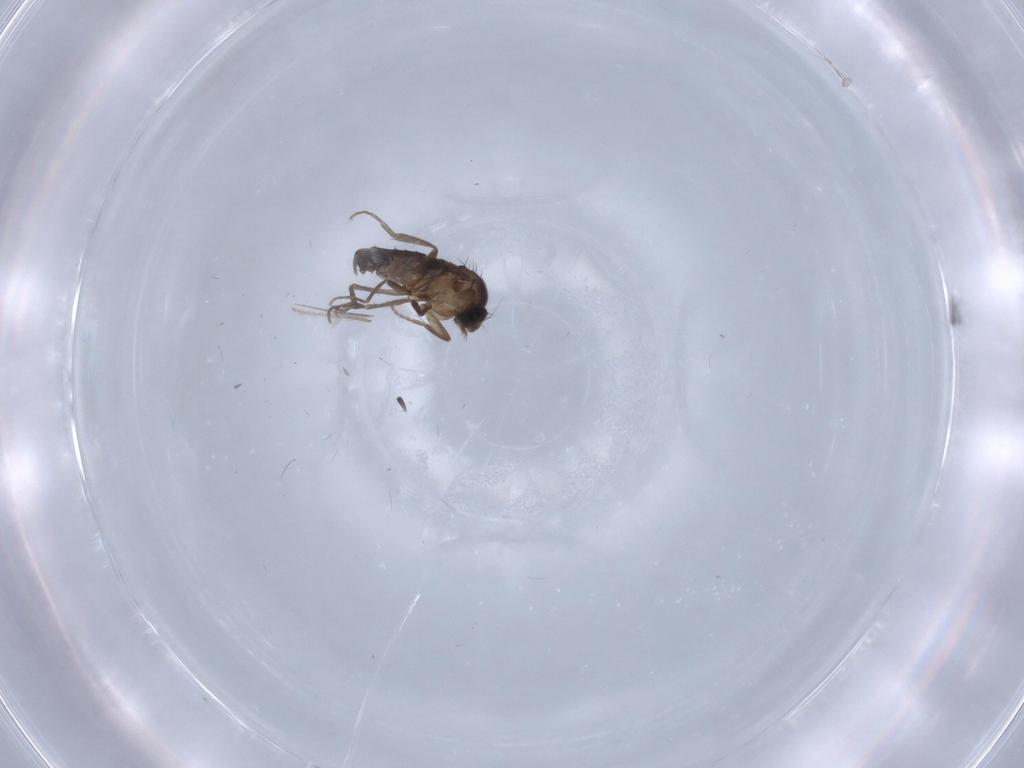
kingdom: Animalia
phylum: Arthropoda
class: Insecta
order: Diptera
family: Phoridae
